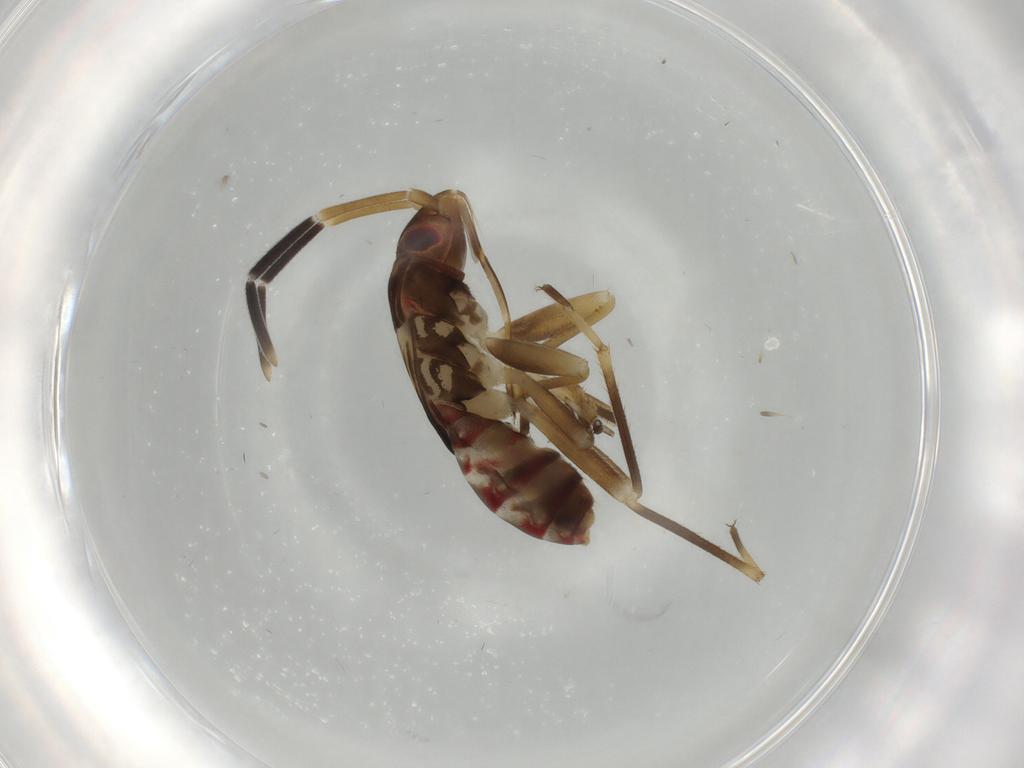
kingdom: Animalia
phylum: Arthropoda
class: Insecta
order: Hemiptera
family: Rhyparochromidae
